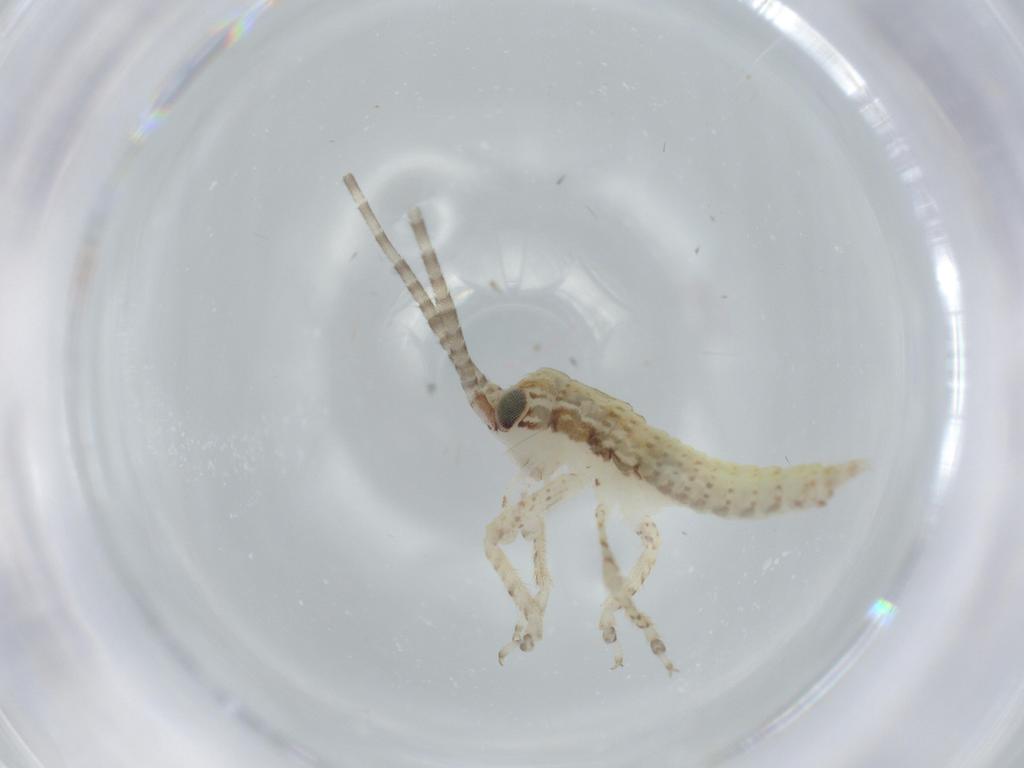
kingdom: Animalia
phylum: Arthropoda
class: Insecta
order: Orthoptera
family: Gryllidae
